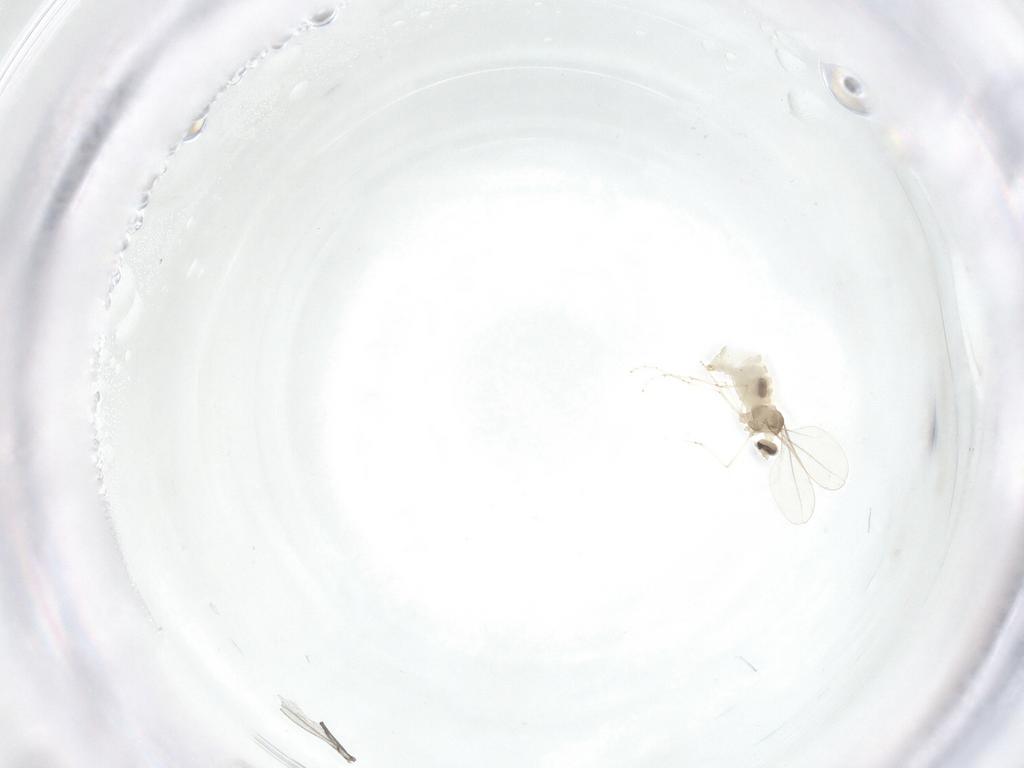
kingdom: Animalia
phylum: Arthropoda
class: Insecta
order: Diptera
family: Cecidomyiidae
